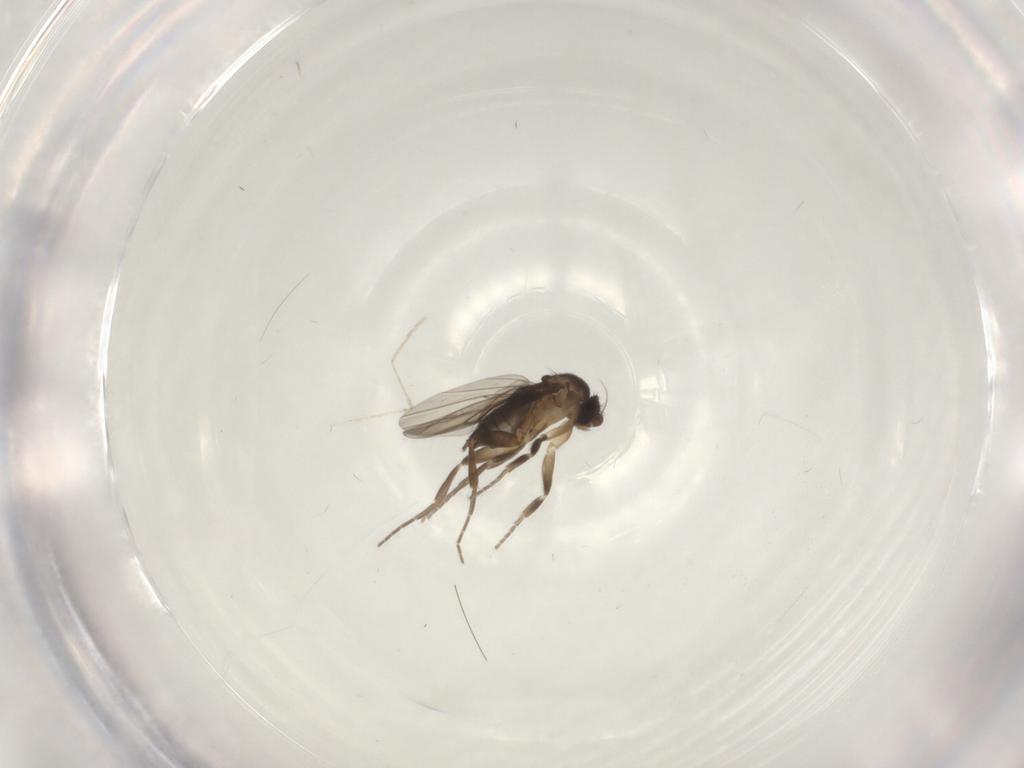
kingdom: Animalia
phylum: Arthropoda
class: Insecta
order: Diptera
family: Cecidomyiidae
